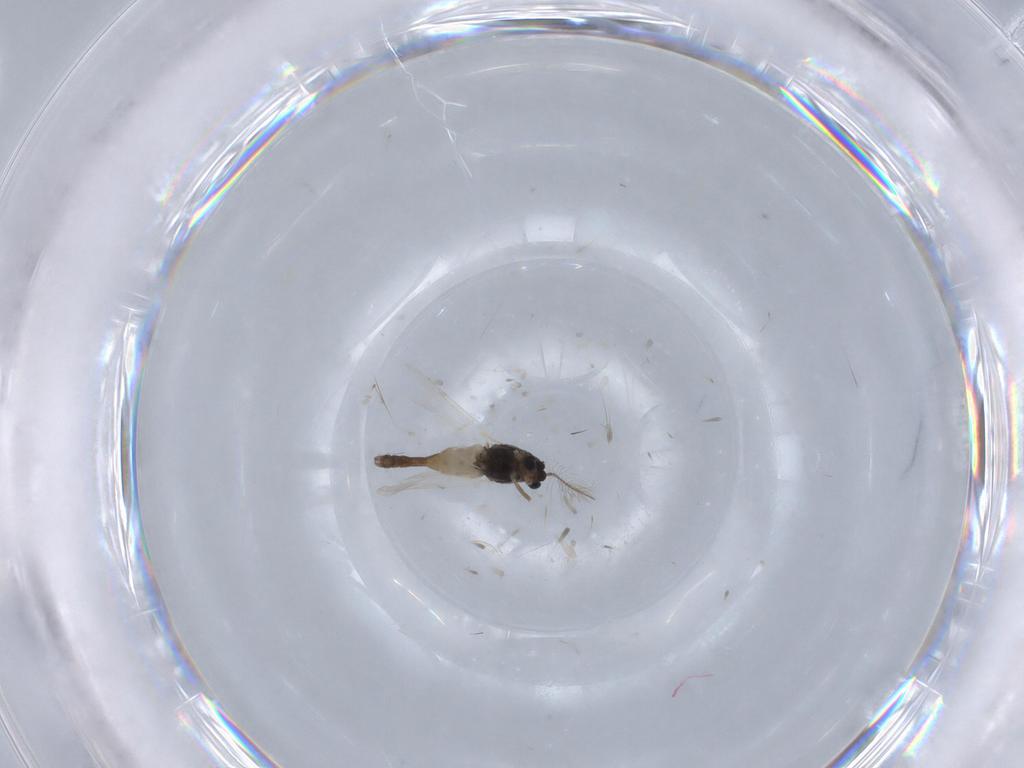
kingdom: Animalia
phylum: Arthropoda
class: Insecta
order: Diptera
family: Chironomidae
